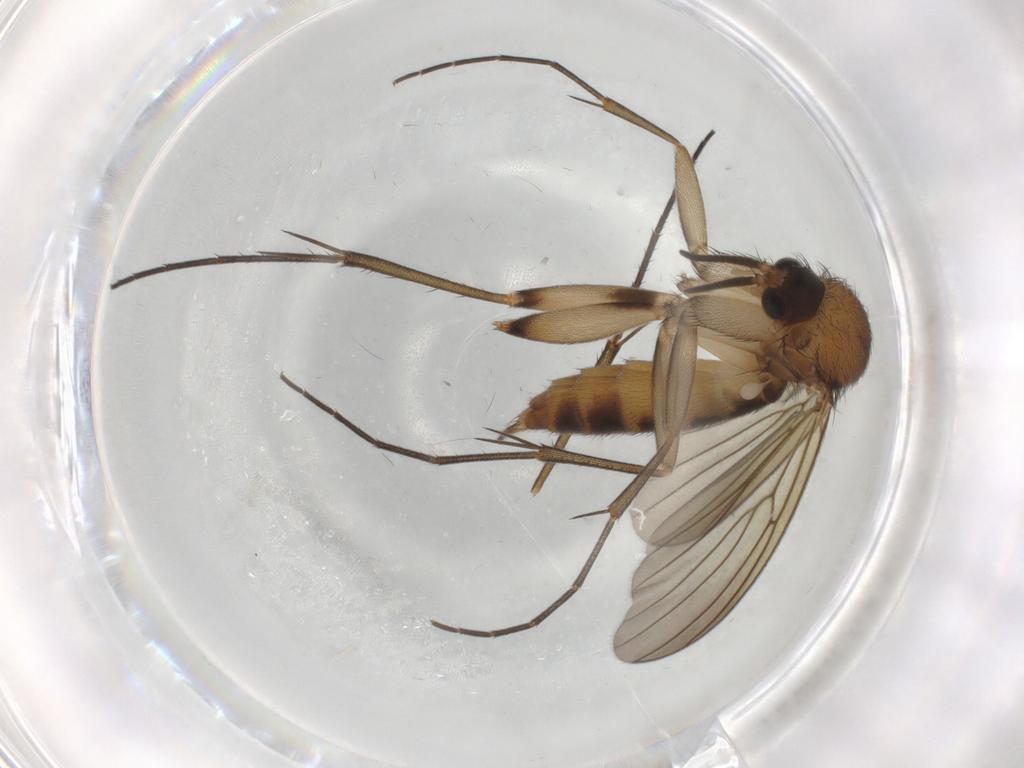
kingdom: Animalia
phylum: Arthropoda
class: Insecta
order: Diptera
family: Mycetophilidae
